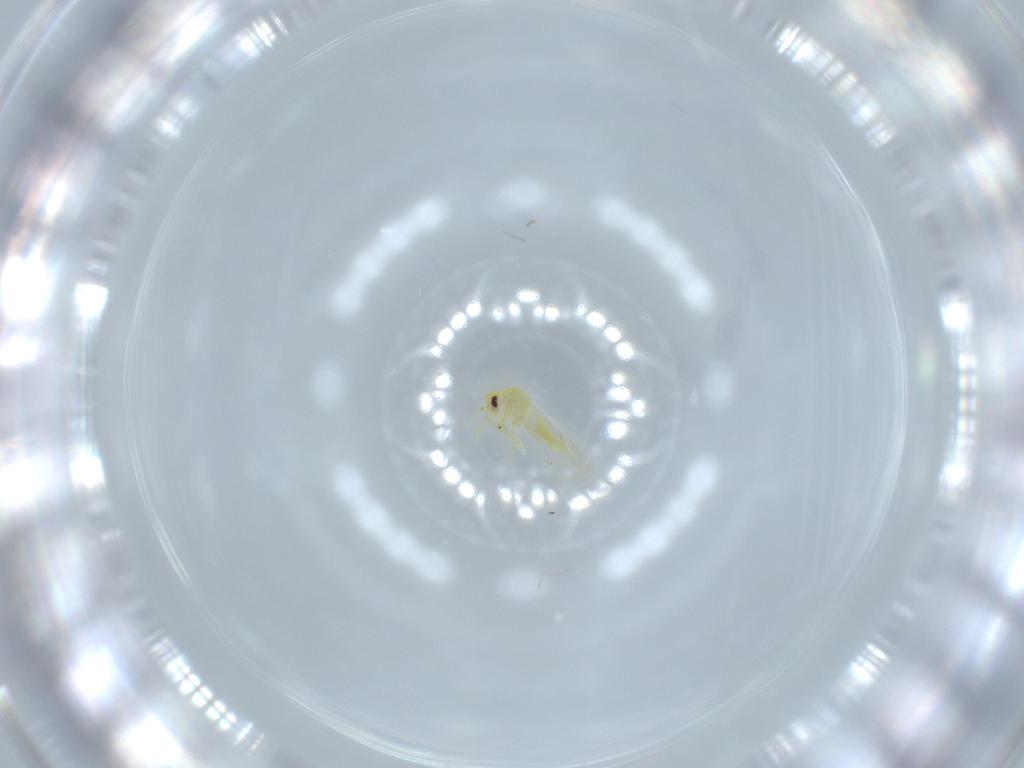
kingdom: Animalia
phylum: Arthropoda
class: Insecta
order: Hemiptera
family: Aleyrodidae
